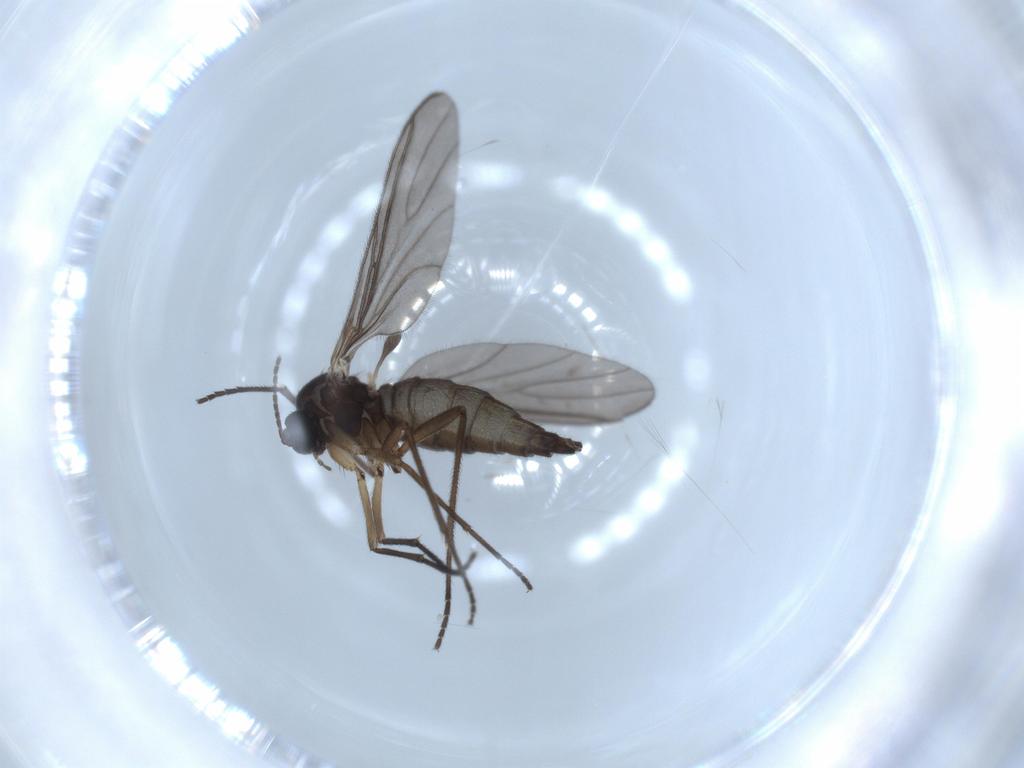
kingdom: Animalia
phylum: Arthropoda
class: Insecta
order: Diptera
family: Sciaridae
